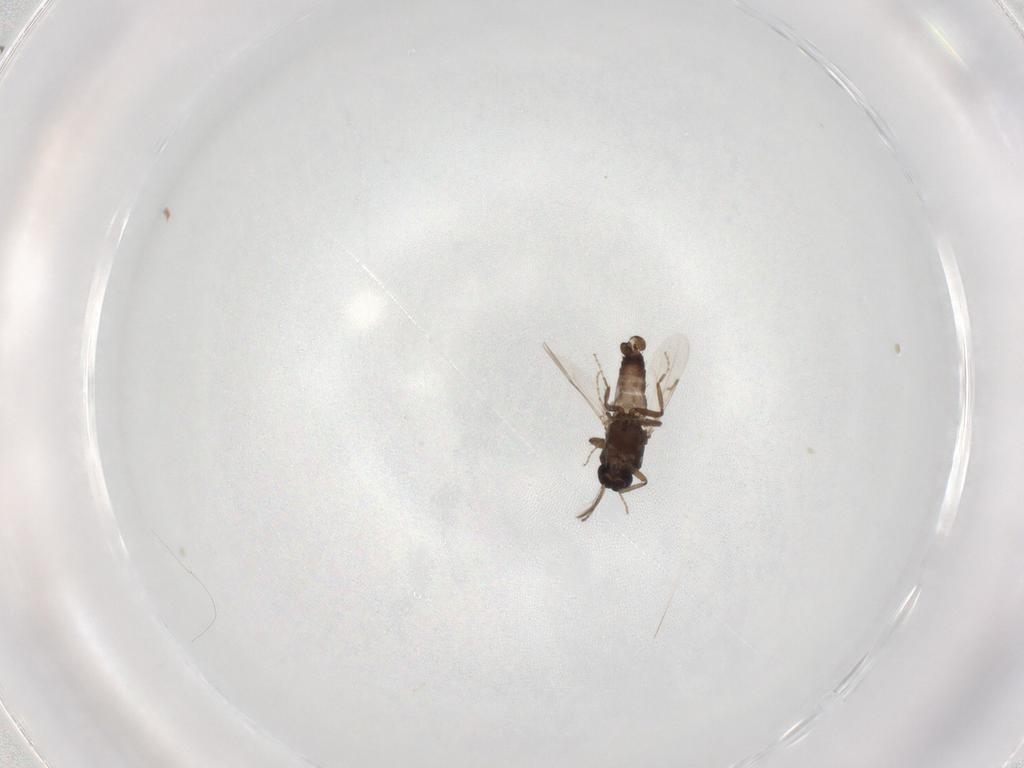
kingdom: Animalia
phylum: Arthropoda
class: Insecta
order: Diptera
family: Ceratopogonidae
